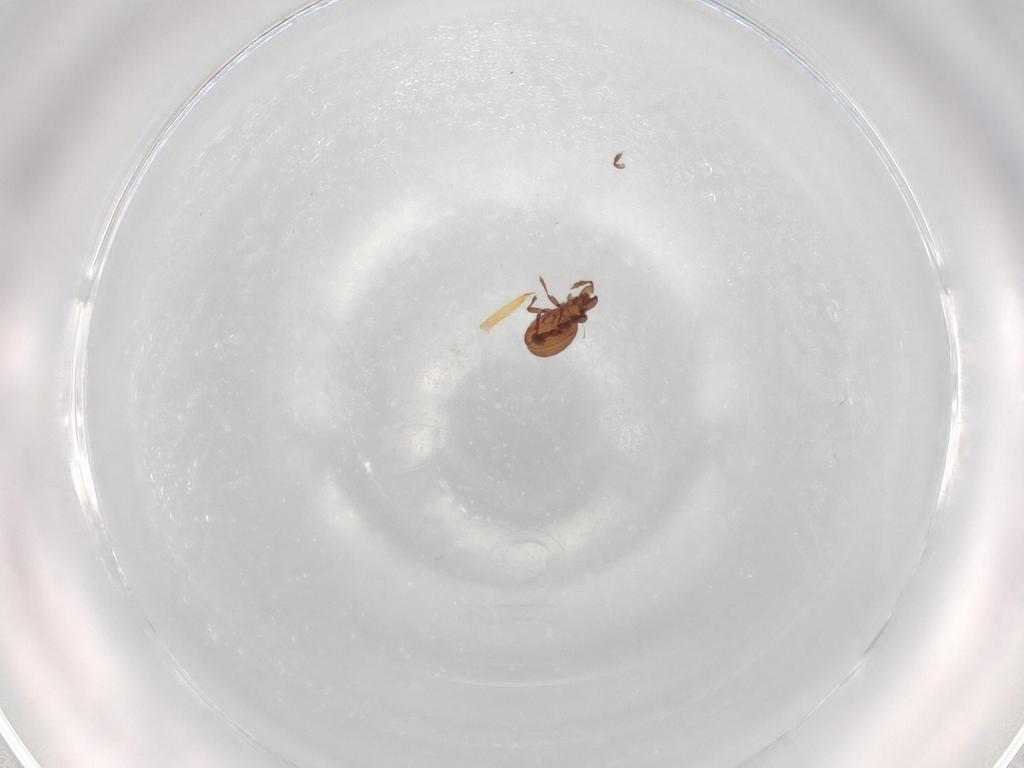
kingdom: Animalia
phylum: Arthropoda
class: Arachnida
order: Sarcoptiformes
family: Eremaeidae
